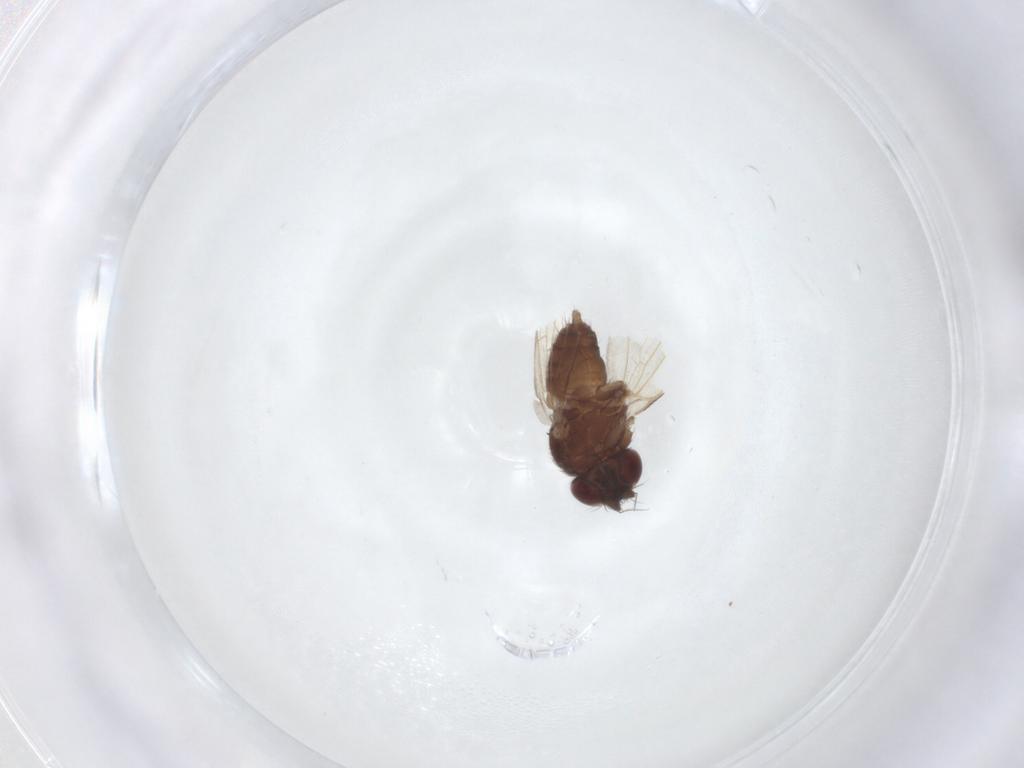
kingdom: Animalia
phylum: Arthropoda
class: Insecta
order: Diptera
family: Milichiidae
